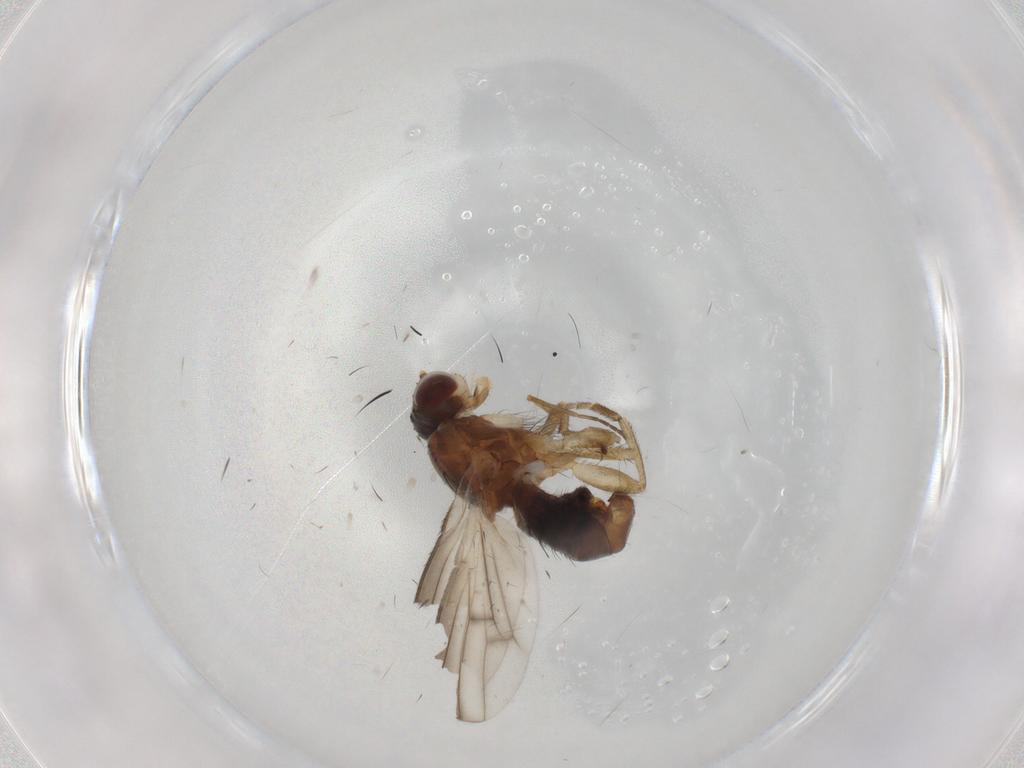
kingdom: Animalia
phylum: Arthropoda
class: Insecta
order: Diptera
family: Heleomyzidae
